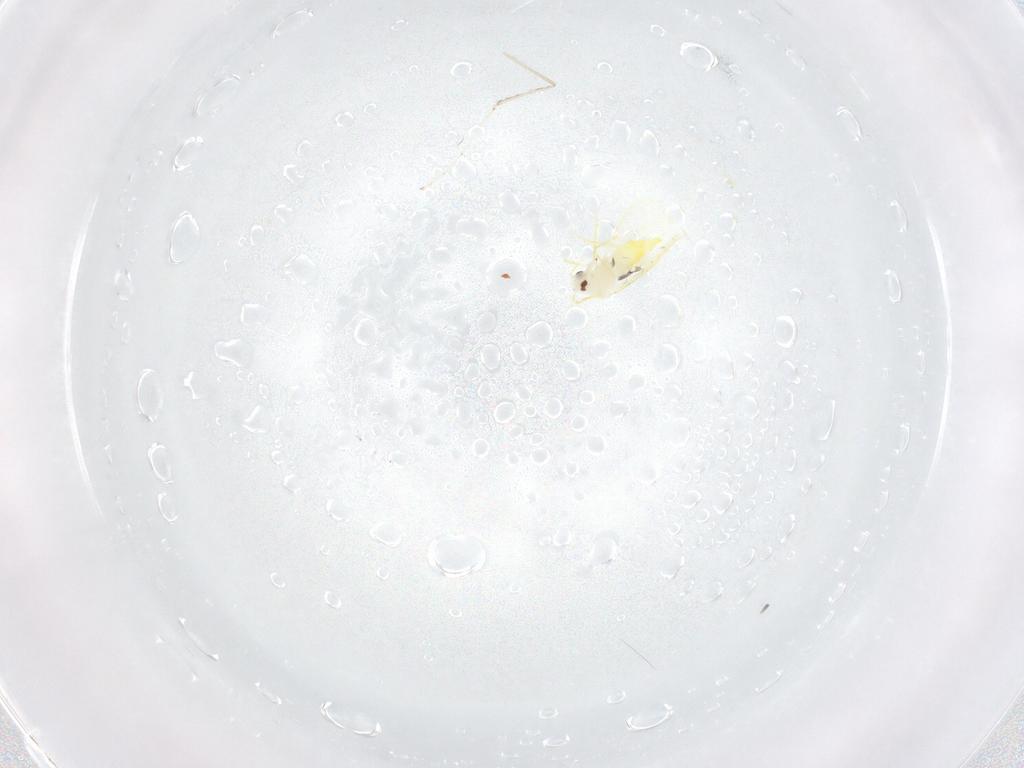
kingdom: Animalia
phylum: Arthropoda
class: Insecta
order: Hemiptera
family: Aleyrodidae
